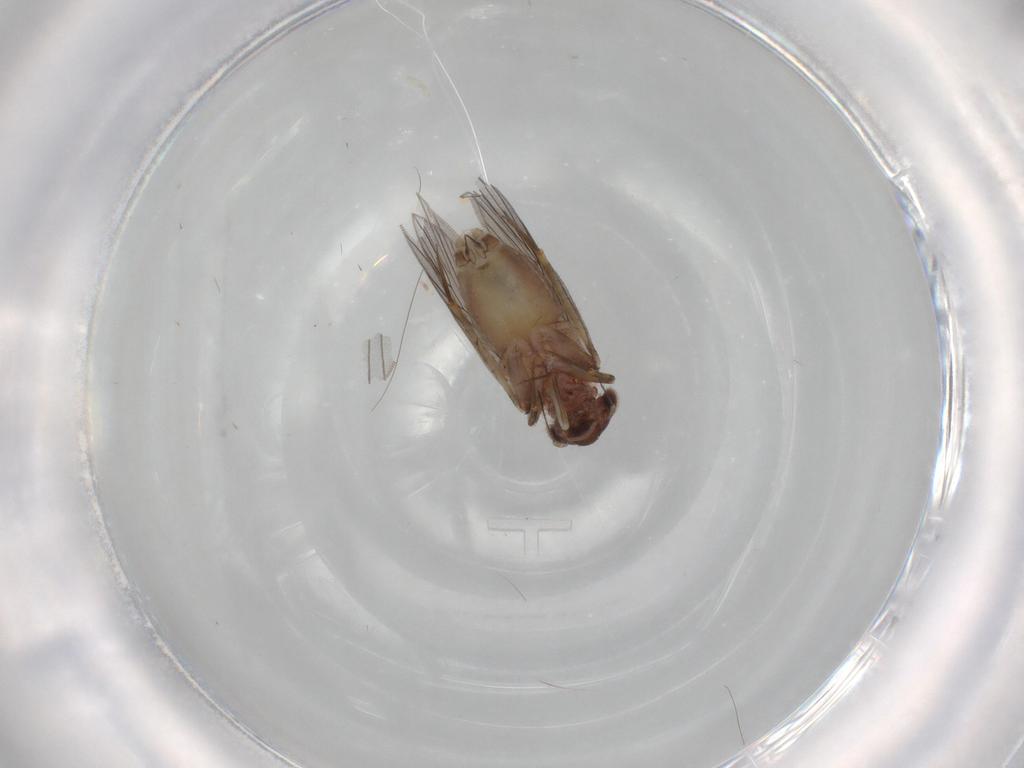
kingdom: Animalia
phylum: Arthropoda
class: Insecta
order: Psocodea
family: Lepidopsocidae
